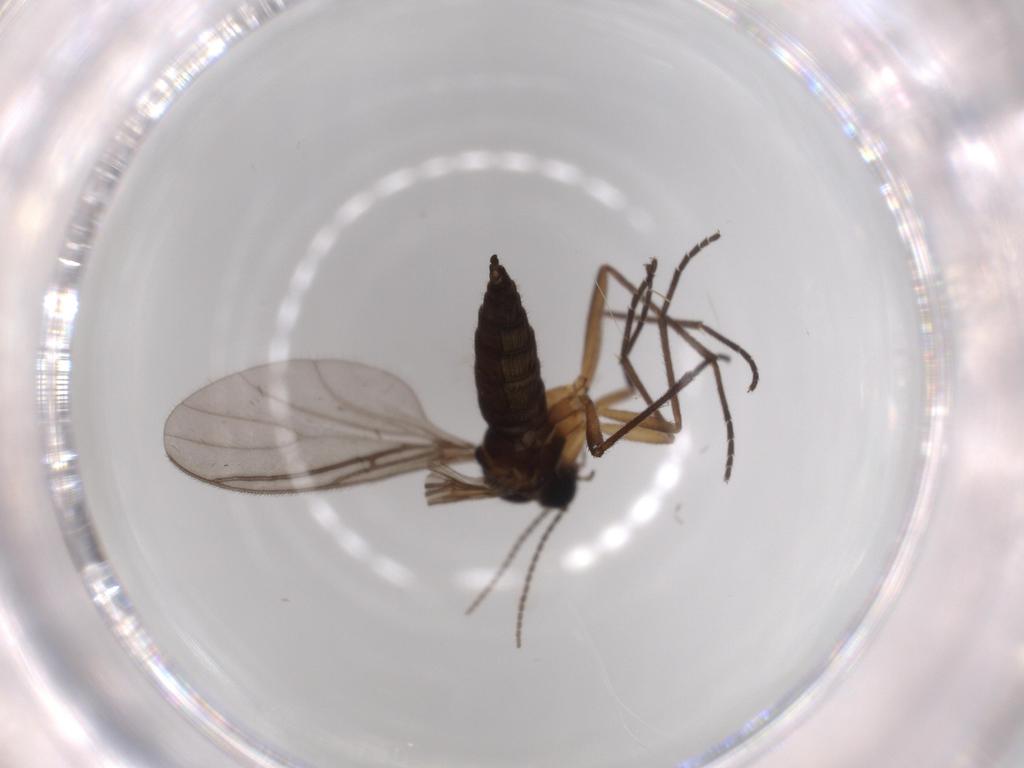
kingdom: Animalia
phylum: Arthropoda
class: Insecta
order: Diptera
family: Sciaridae
